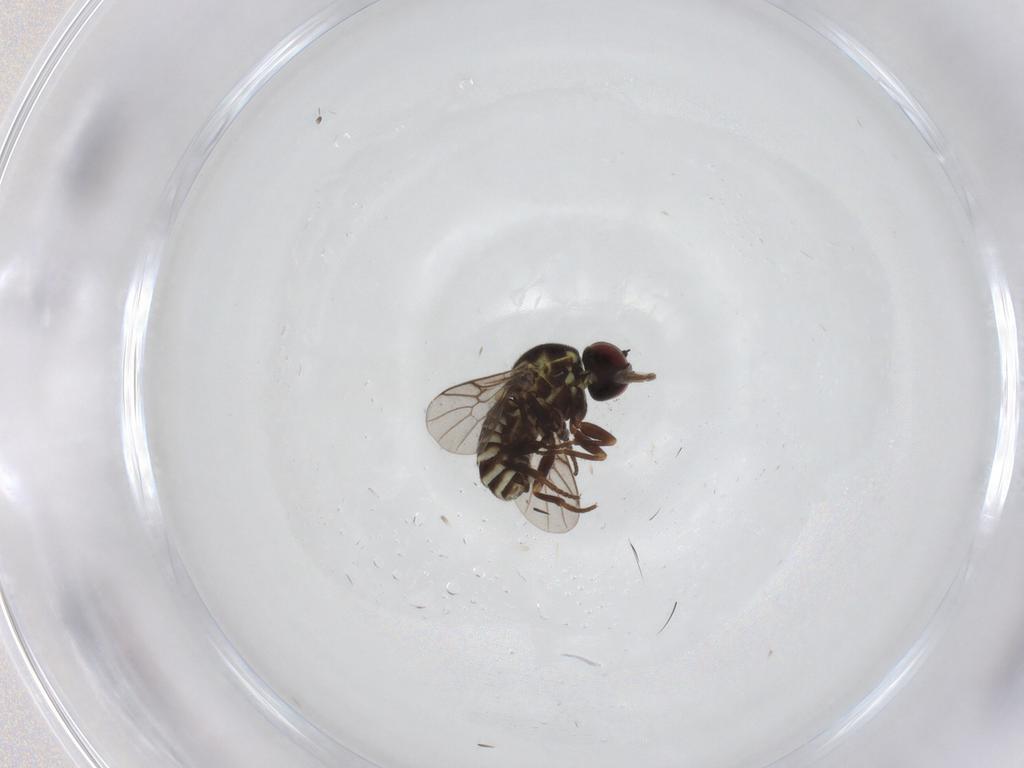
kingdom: Animalia
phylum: Arthropoda
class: Insecta
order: Diptera
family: Bombyliidae
